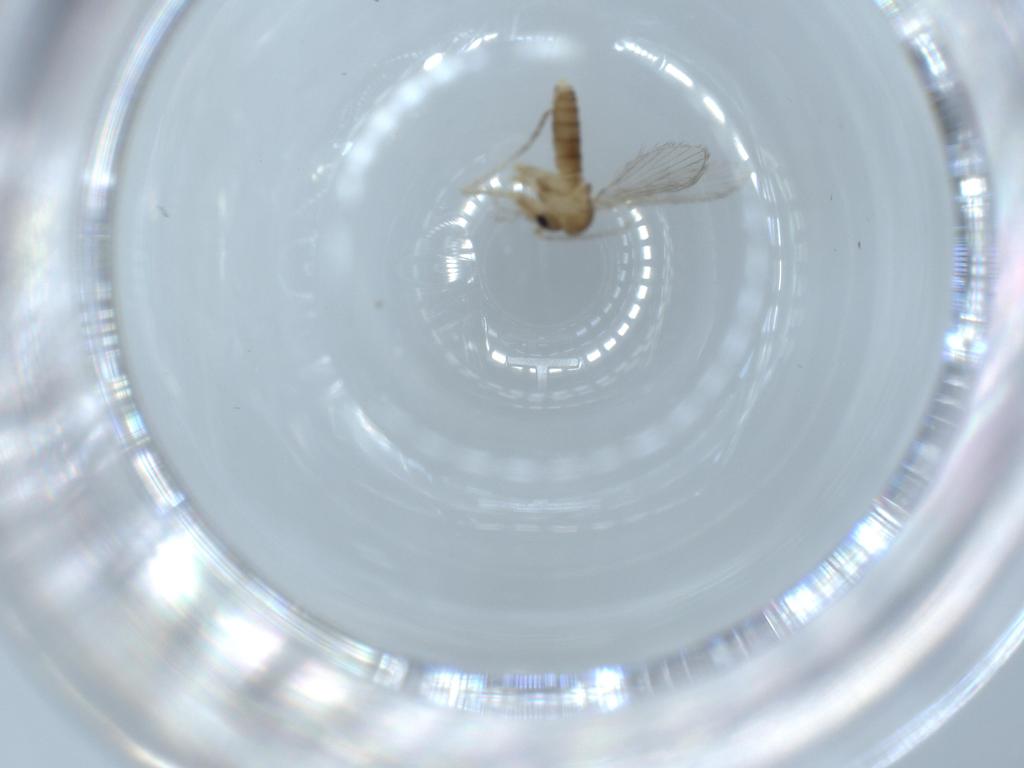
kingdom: Animalia
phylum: Arthropoda
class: Insecta
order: Diptera
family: Psychodidae
